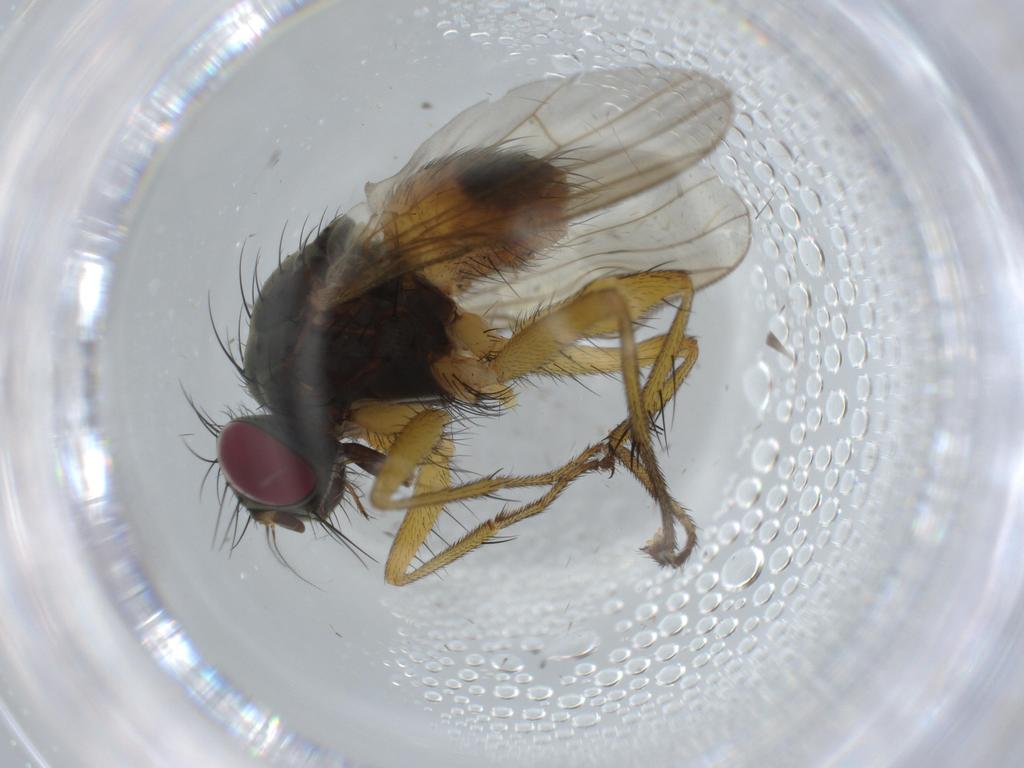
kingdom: Animalia
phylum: Arthropoda
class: Insecta
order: Diptera
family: Muscidae
